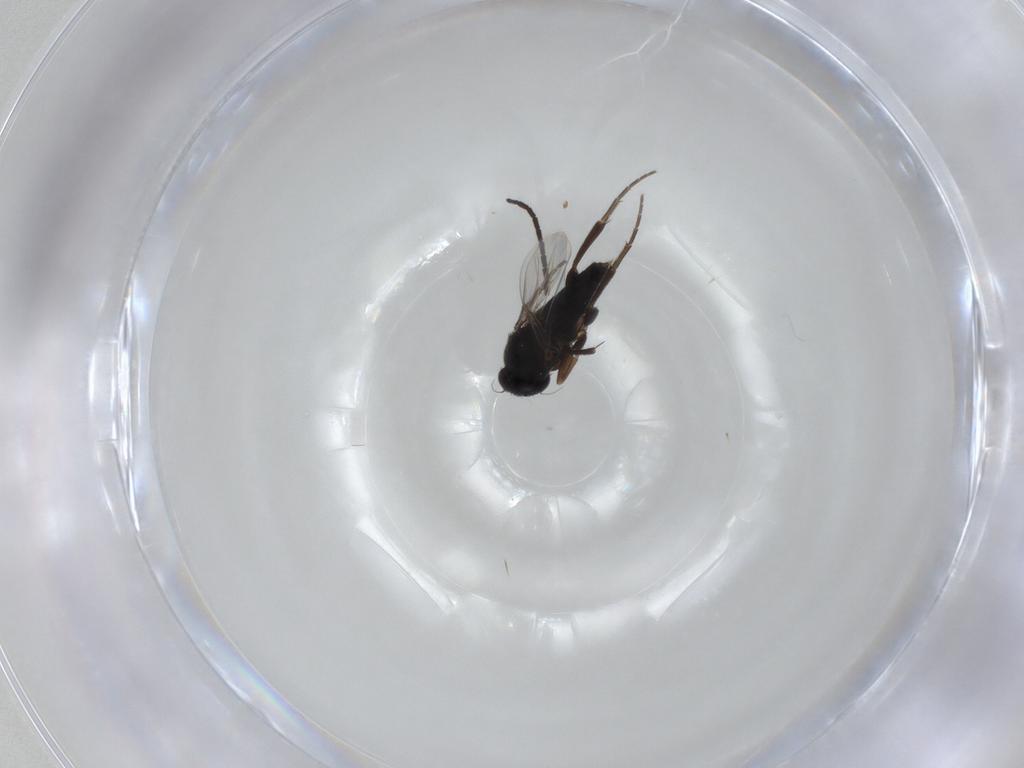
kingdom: Animalia
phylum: Arthropoda
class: Insecta
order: Diptera
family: Phoridae
